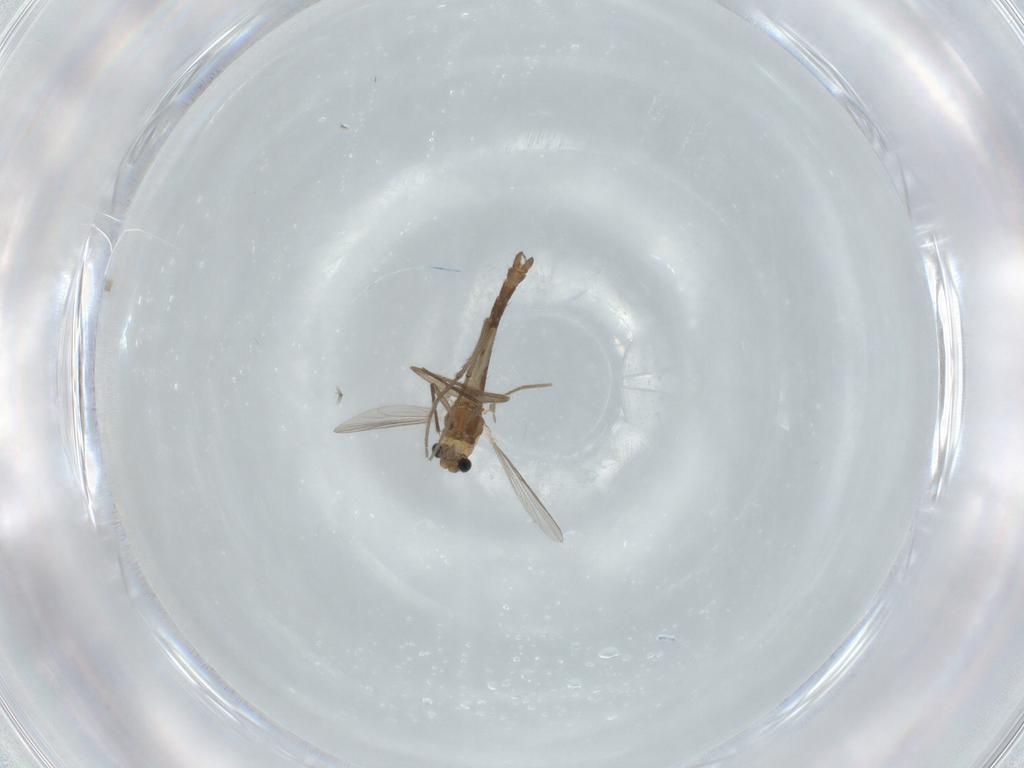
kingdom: Animalia
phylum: Arthropoda
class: Insecta
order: Diptera
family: Chironomidae
